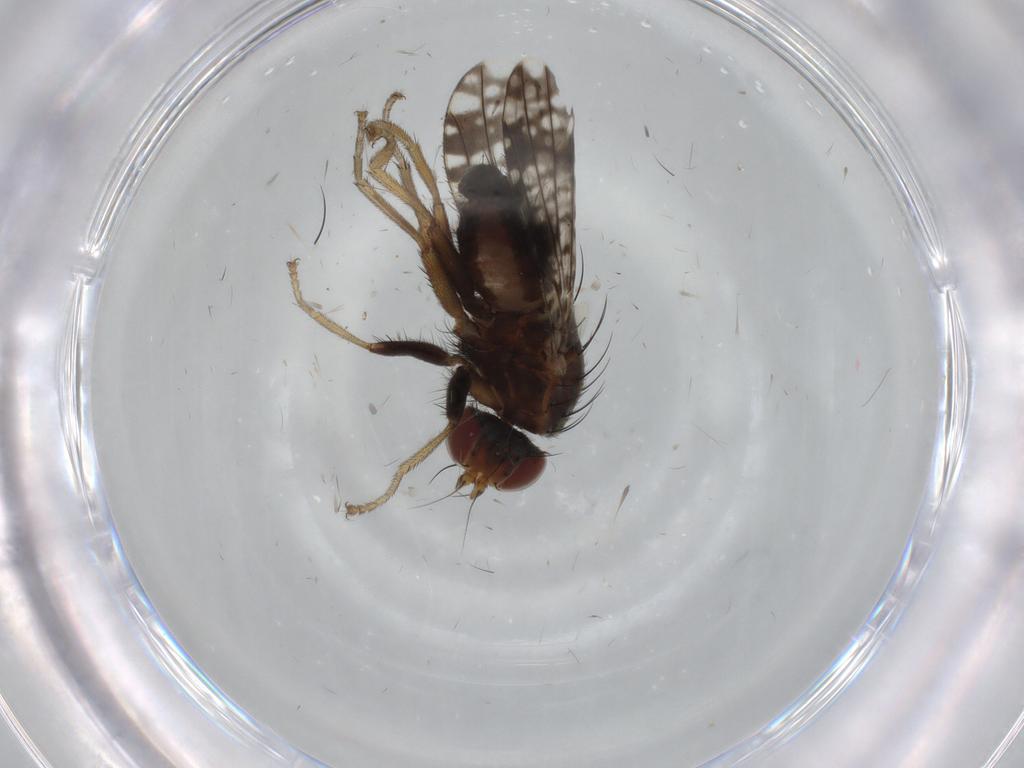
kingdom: Animalia
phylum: Arthropoda
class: Insecta
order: Diptera
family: Tephritidae
